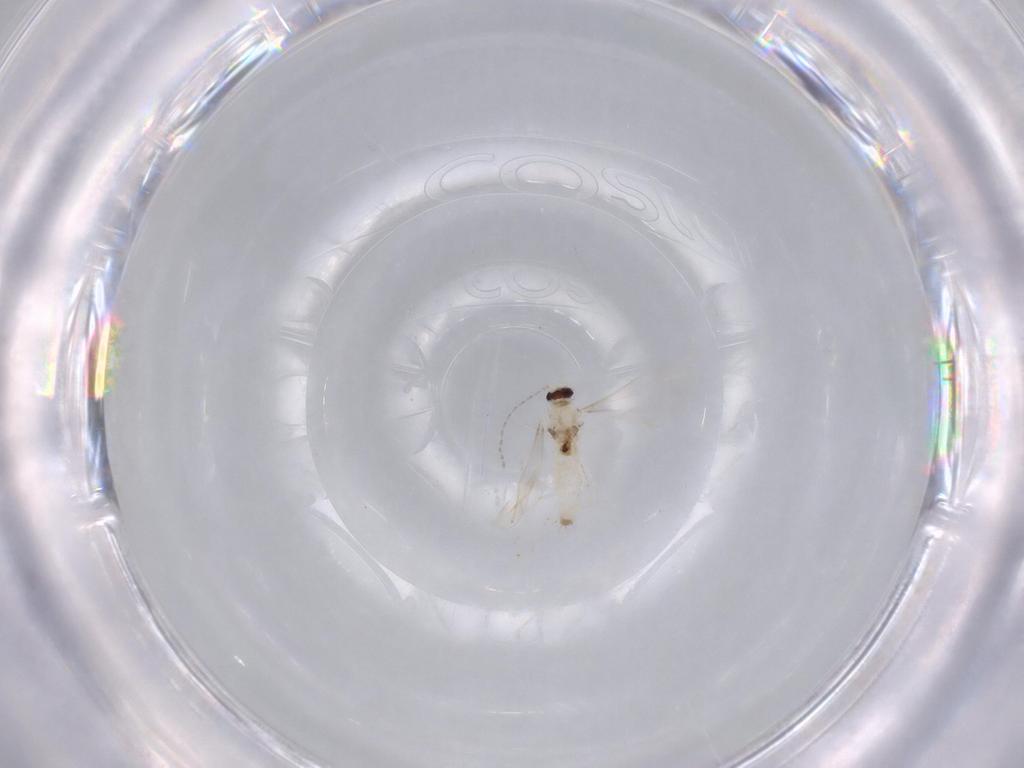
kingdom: Animalia
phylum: Arthropoda
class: Insecta
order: Diptera
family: Cecidomyiidae
